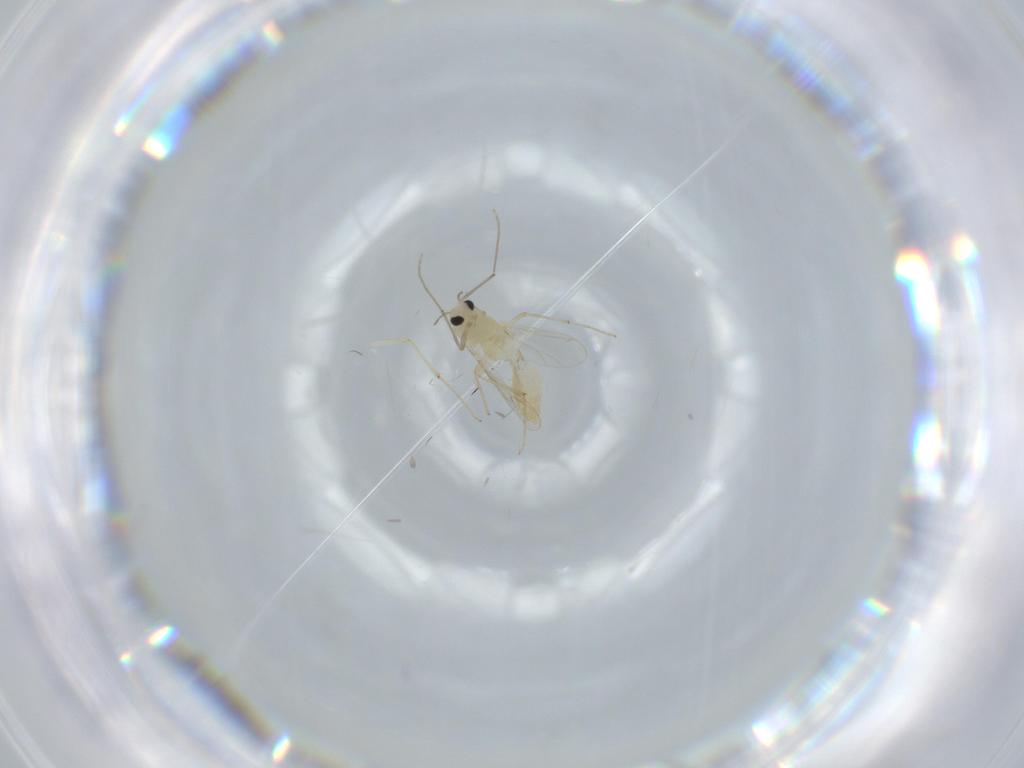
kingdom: Animalia
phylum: Arthropoda
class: Insecta
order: Diptera
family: Chironomidae
